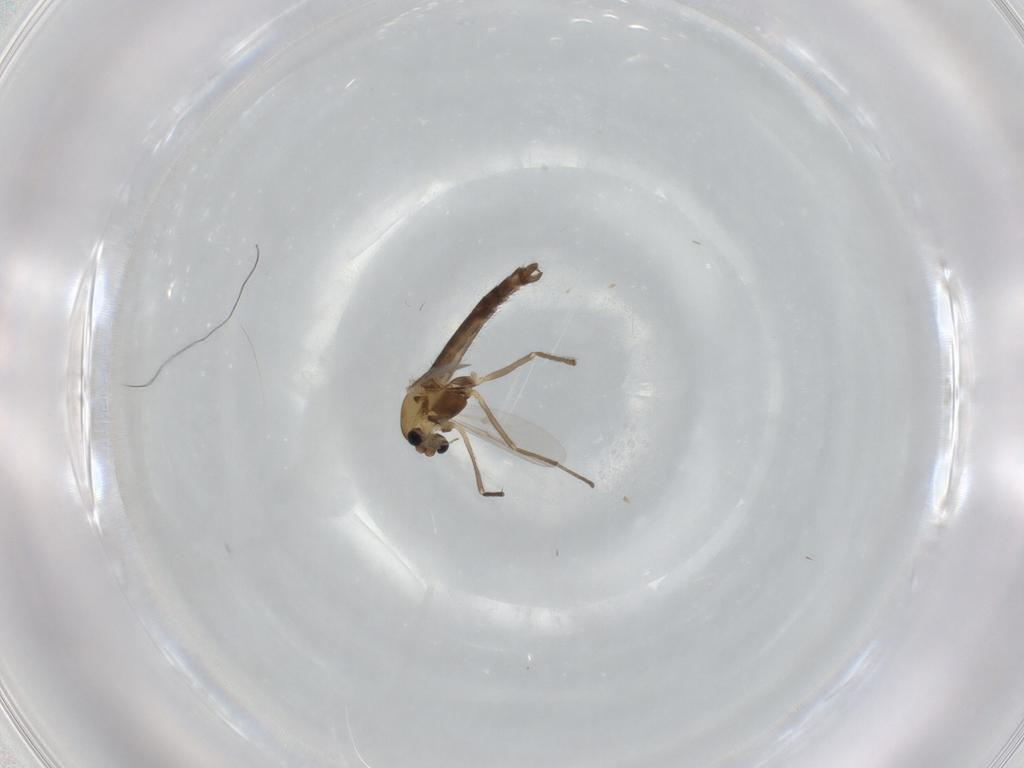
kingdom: Animalia
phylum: Arthropoda
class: Insecta
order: Diptera
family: Chironomidae
